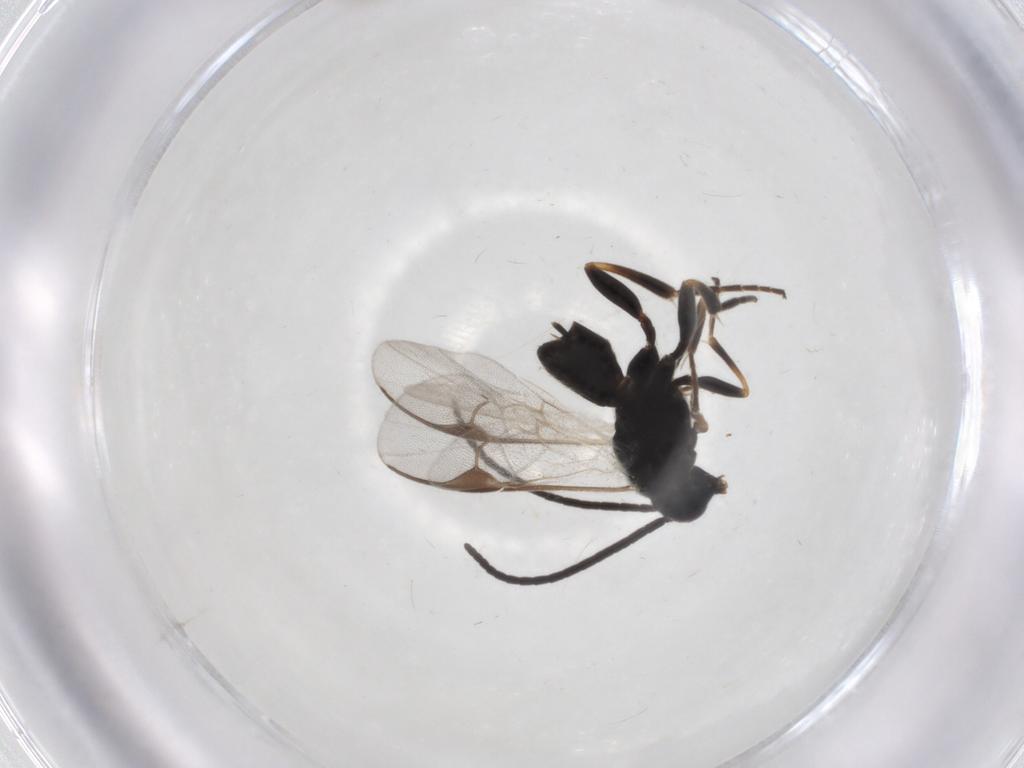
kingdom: Animalia
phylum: Arthropoda
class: Insecta
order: Hymenoptera
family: Braconidae
